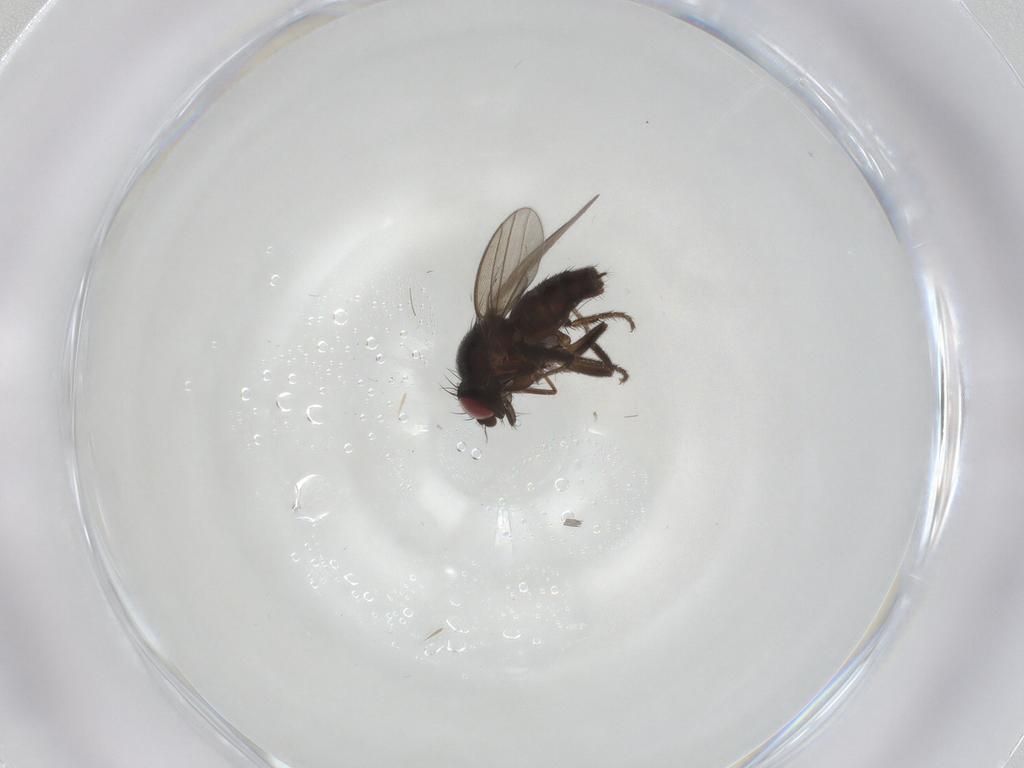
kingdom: Animalia
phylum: Arthropoda
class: Insecta
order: Diptera
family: Milichiidae
